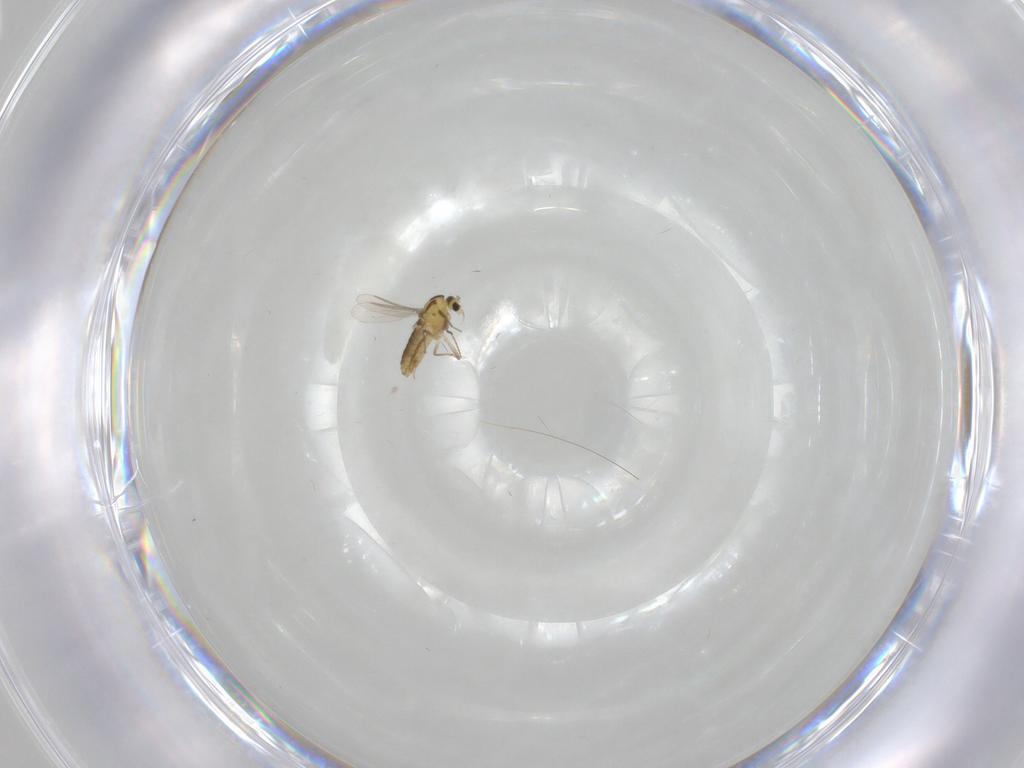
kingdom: Animalia
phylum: Arthropoda
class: Insecta
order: Diptera
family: Chironomidae
